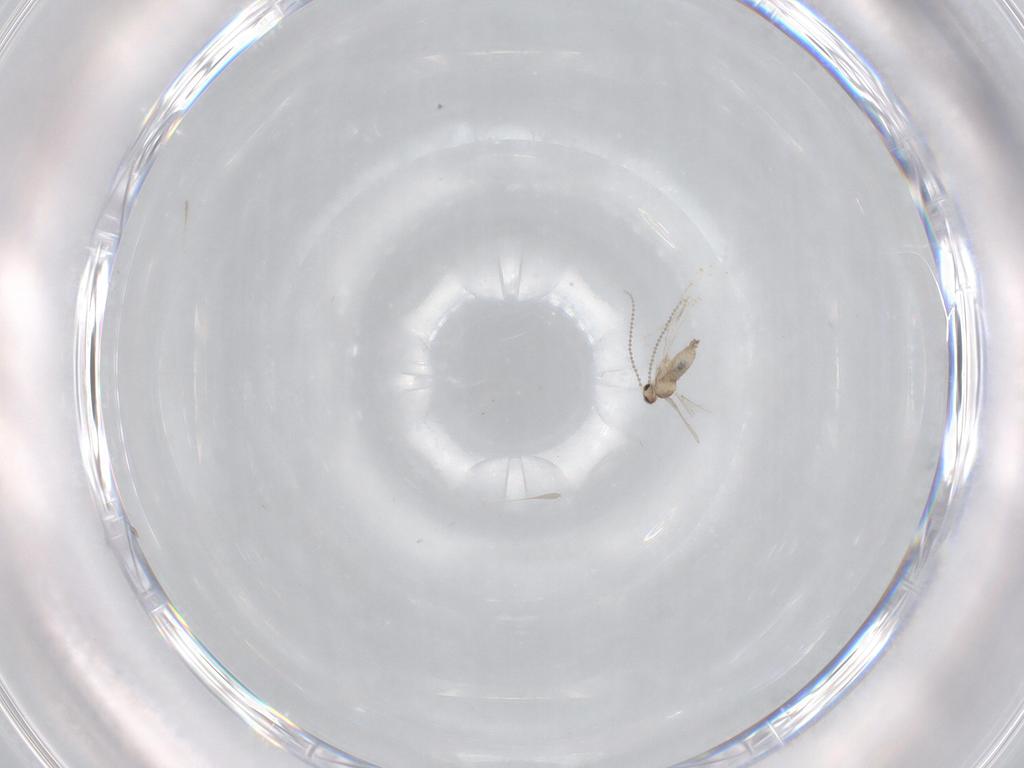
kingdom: Animalia
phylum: Arthropoda
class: Insecta
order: Diptera
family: Cecidomyiidae
